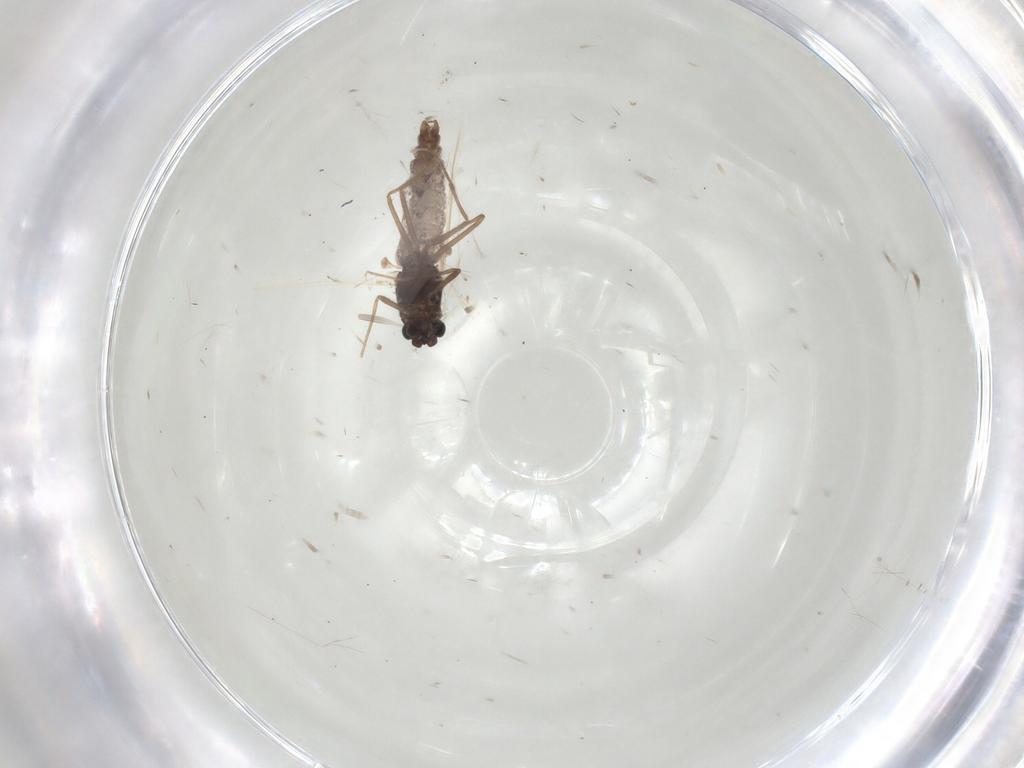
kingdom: Animalia
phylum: Arthropoda
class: Insecta
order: Diptera
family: Chironomidae
